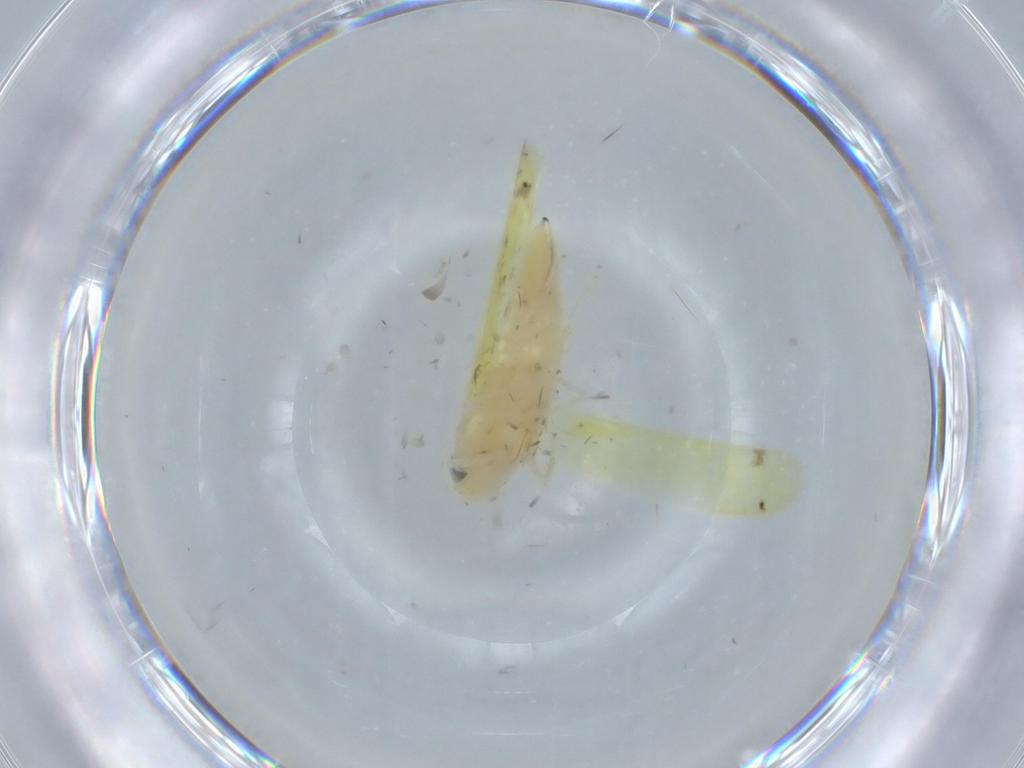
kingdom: Animalia
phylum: Arthropoda
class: Insecta
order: Hemiptera
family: Cicadellidae
